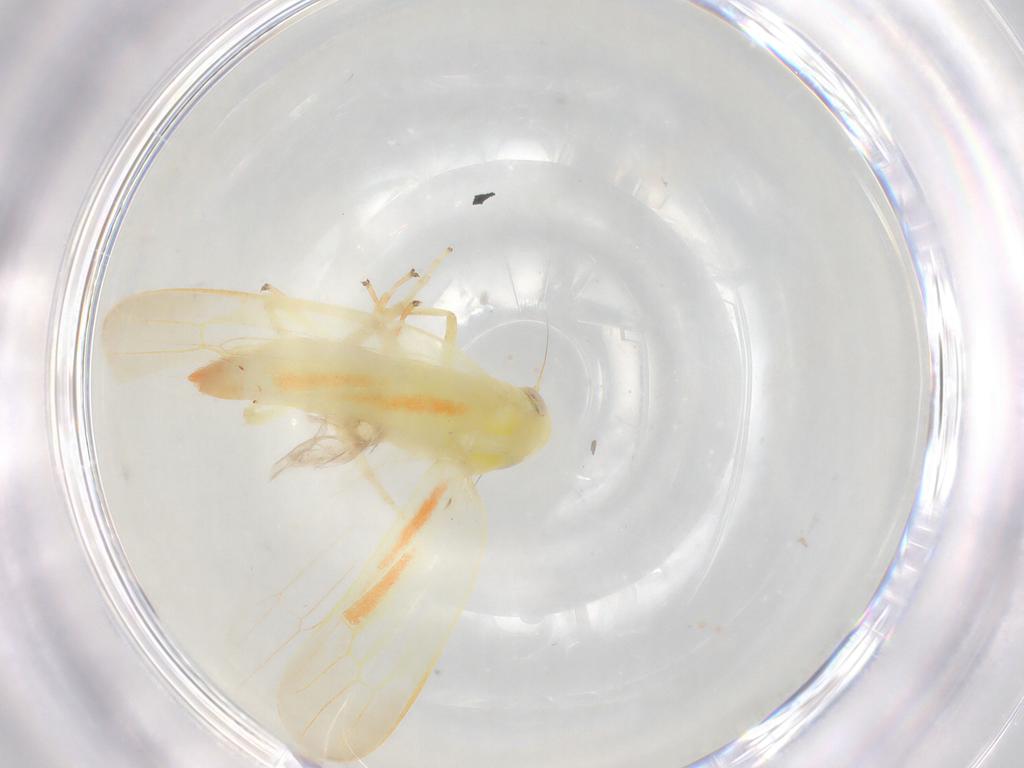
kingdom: Animalia
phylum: Arthropoda
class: Insecta
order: Hemiptera
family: Cicadellidae
